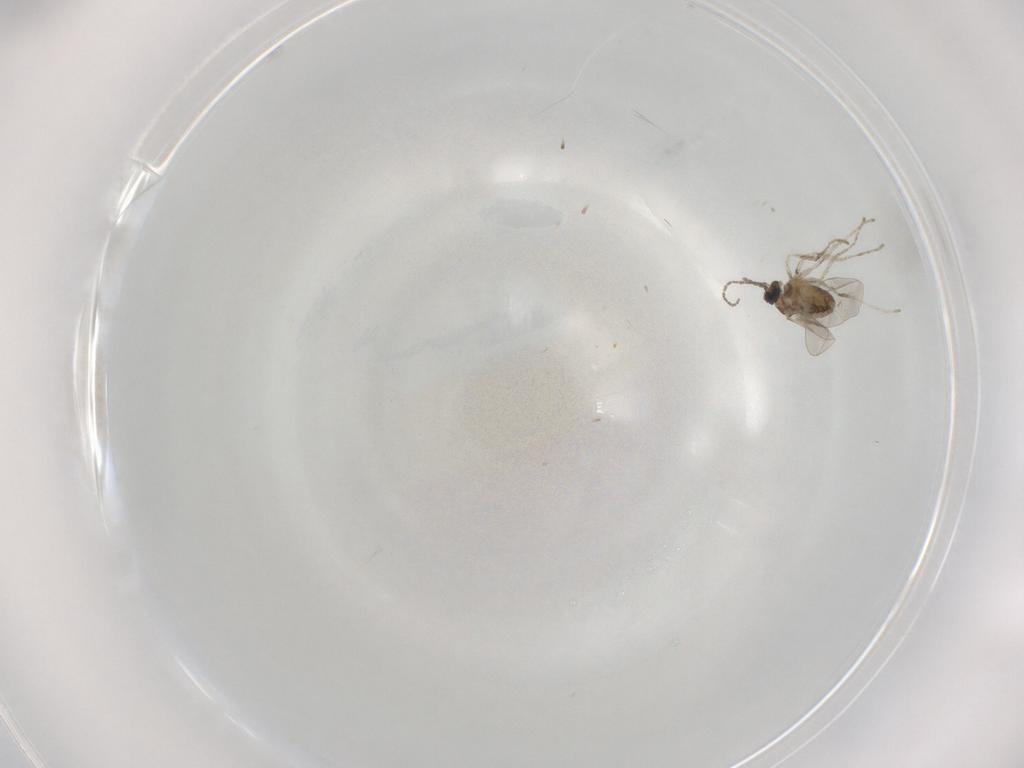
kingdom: Animalia
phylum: Arthropoda
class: Insecta
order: Diptera
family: Cecidomyiidae
